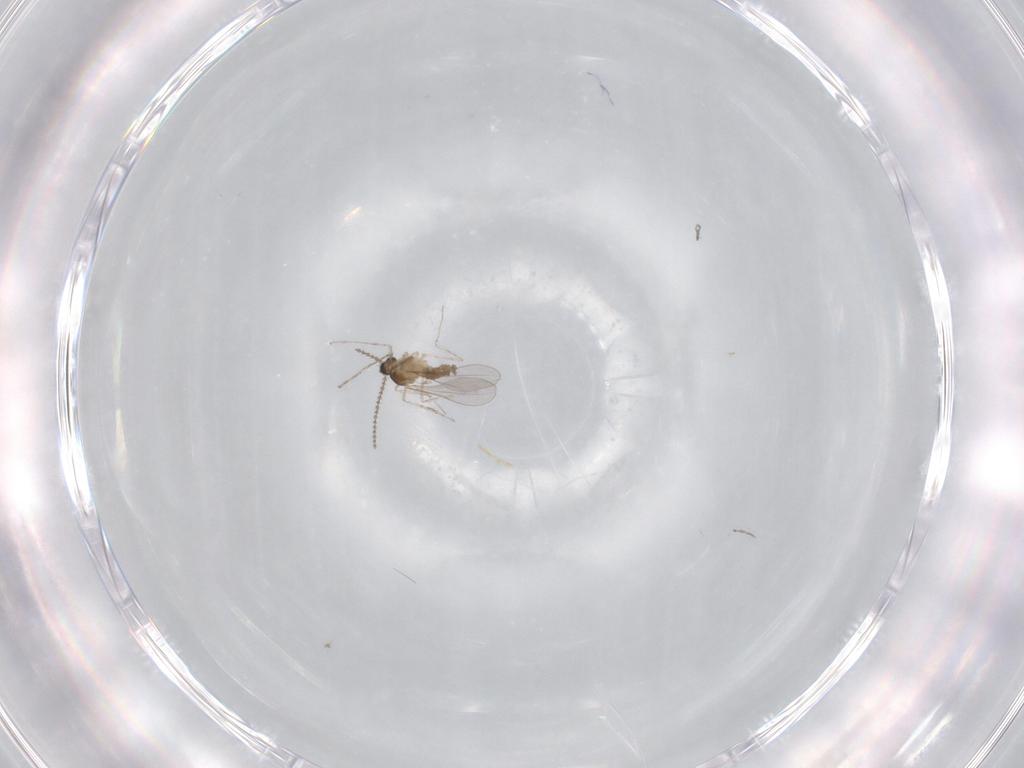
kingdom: Animalia
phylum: Arthropoda
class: Insecta
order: Diptera
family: Cecidomyiidae
